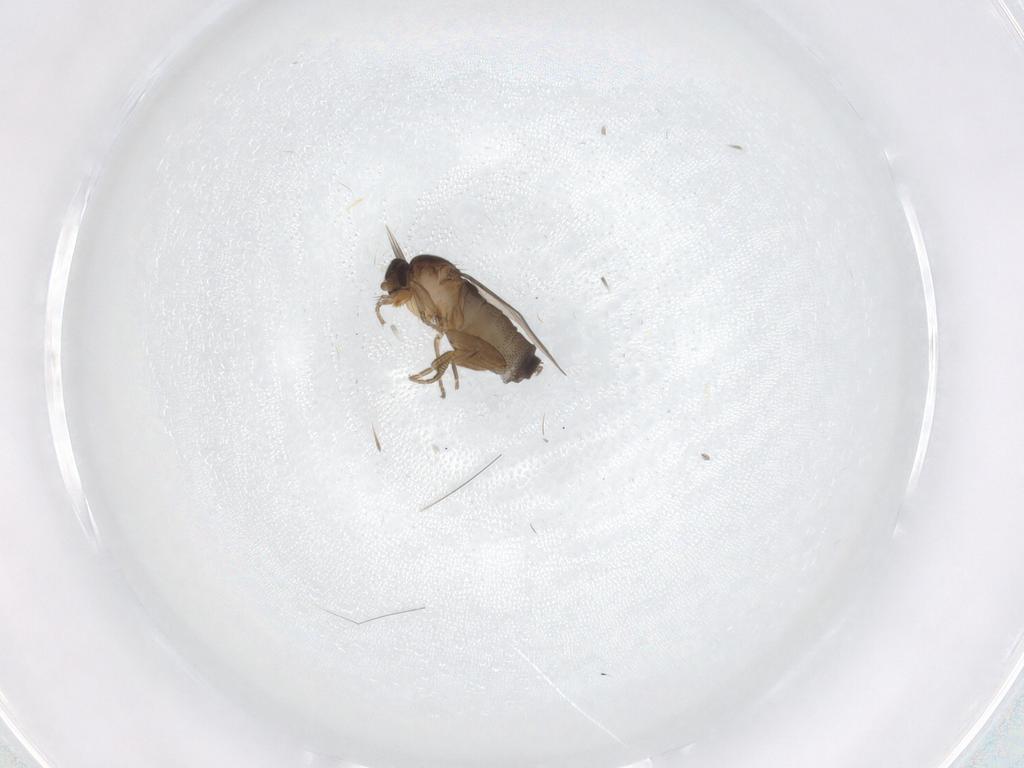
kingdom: Animalia
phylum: Arthropoda
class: Insecta
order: Diptera
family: Phoridae
